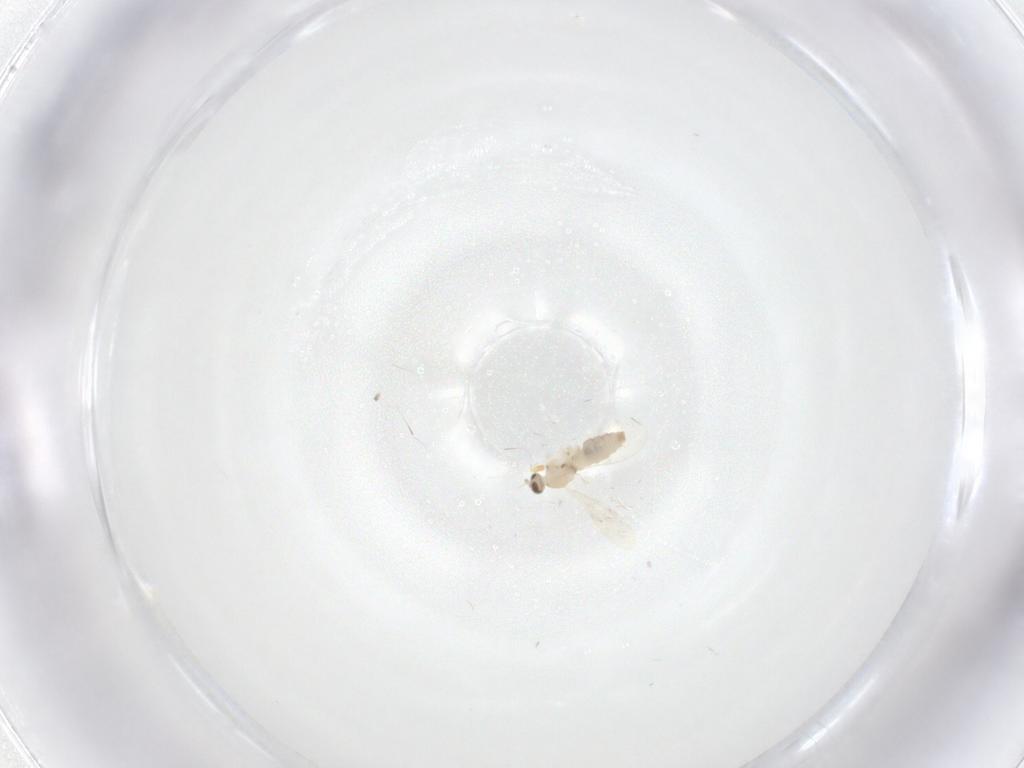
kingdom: Animalia
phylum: Arthropoda
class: Insecta
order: Diptera
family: Cecidomyiidae
